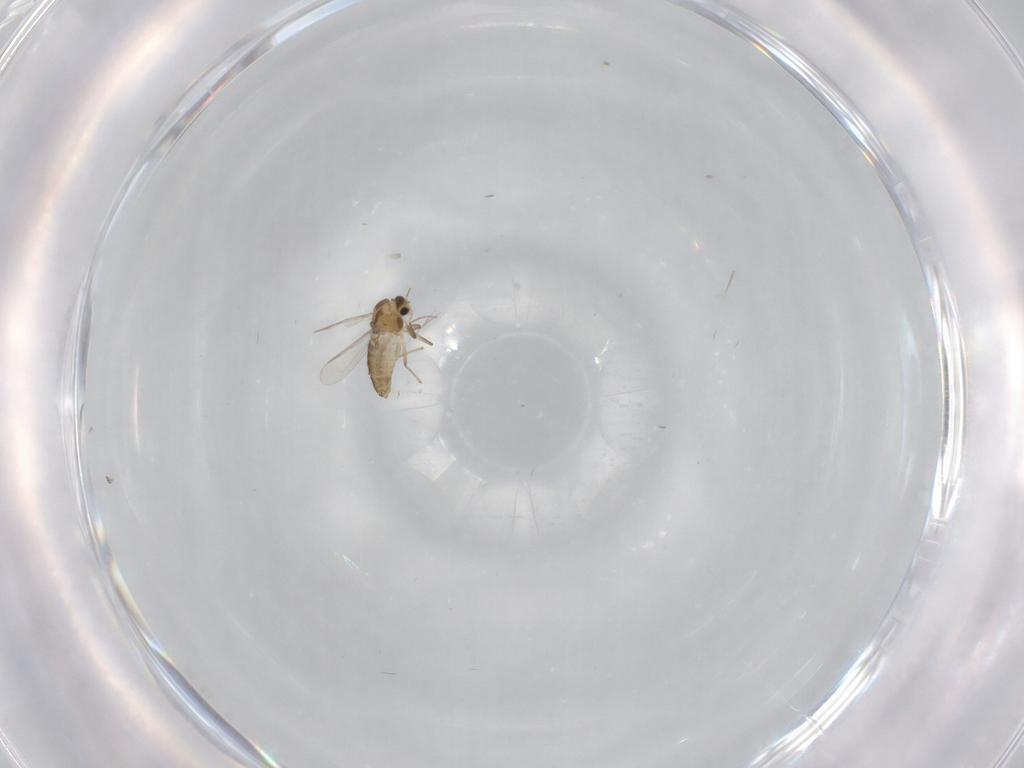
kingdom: Animalia
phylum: Arthropoda
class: Insecta
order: Diptera
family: Chironomidae
